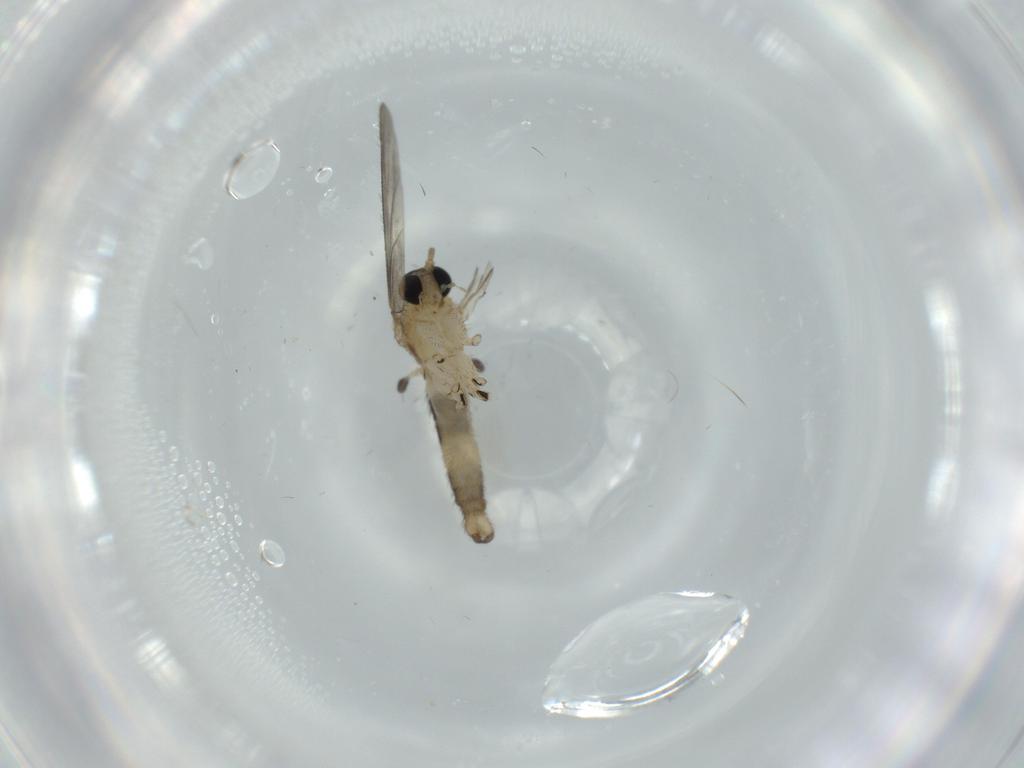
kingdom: Animalia
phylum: Arthropoda
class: Insecta
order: Diptera
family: Sciaridae
